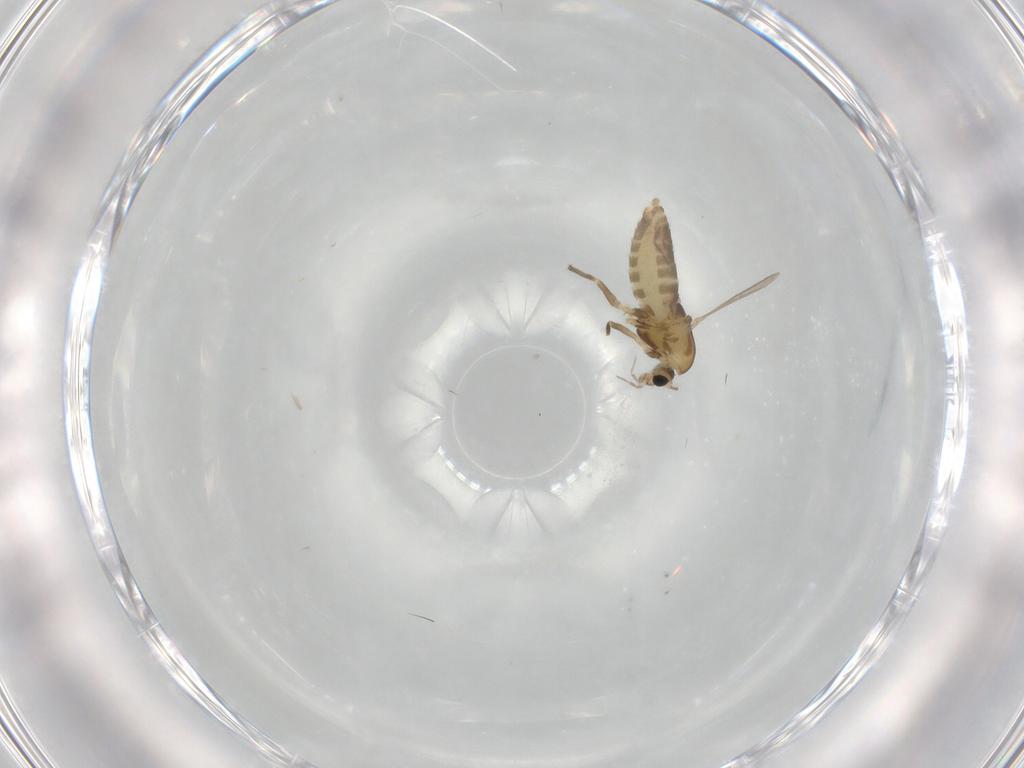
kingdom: Animalia
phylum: Arthropoda
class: Insecta
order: Diptera
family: Chironomidae
